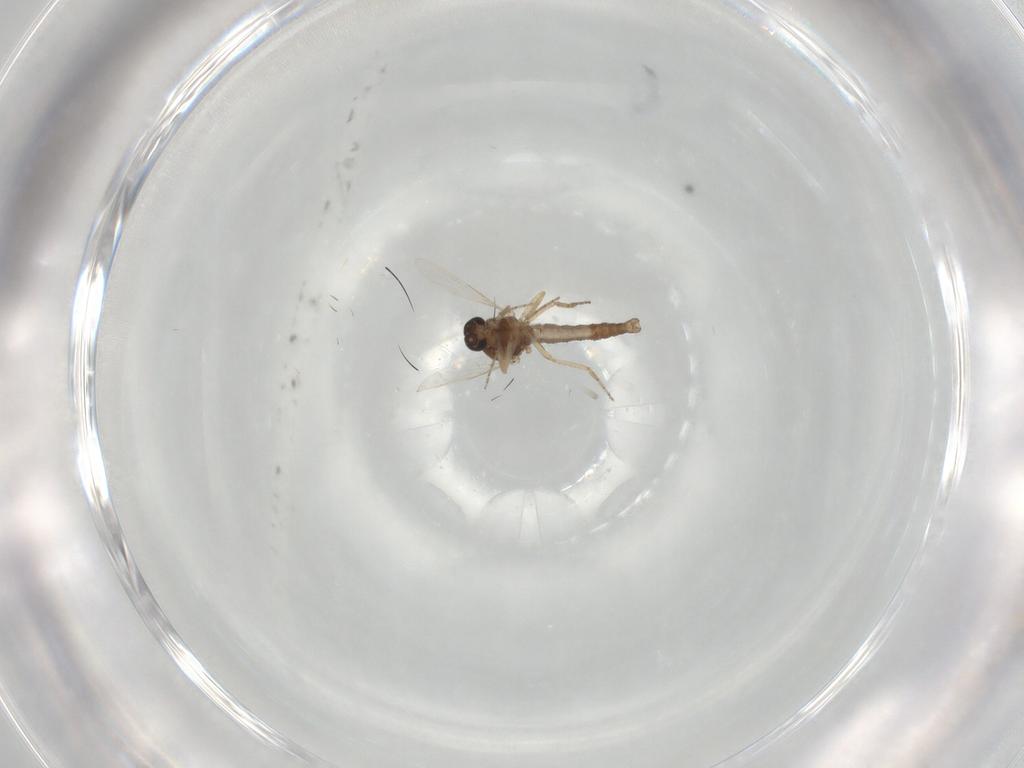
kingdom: Animalia
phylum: Arthropoda
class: Insecta
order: Diptera
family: Ceratopogonidae
